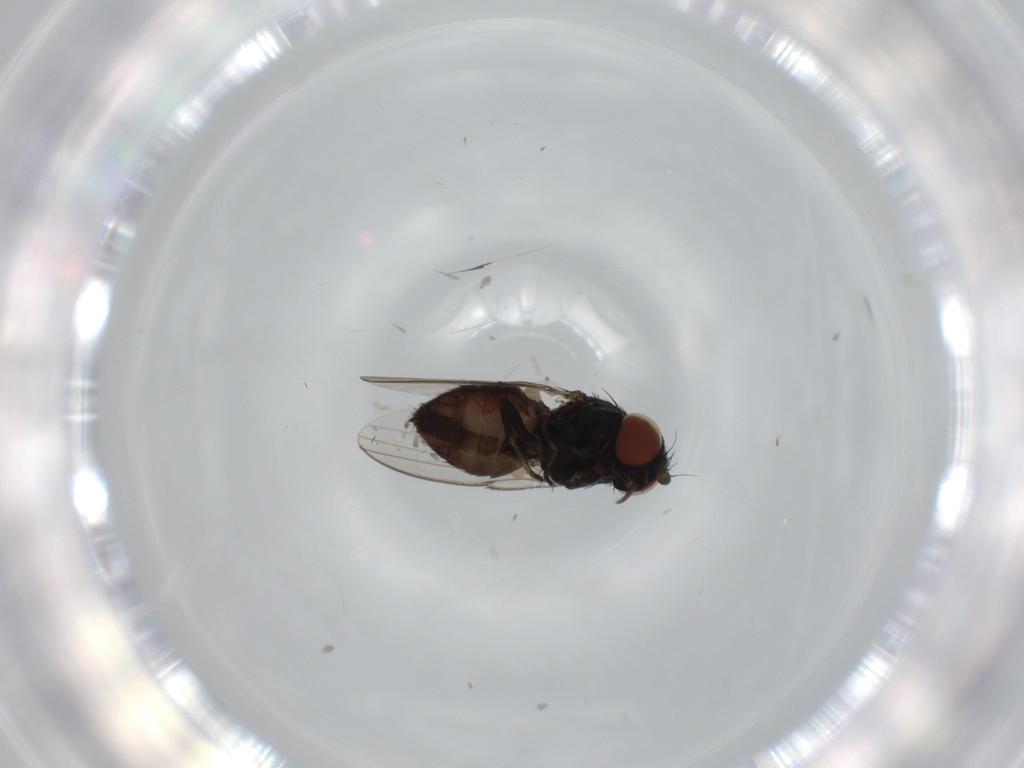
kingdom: Animalia
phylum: Arthropoda
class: Insecta
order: Diptera
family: Milichiidae
